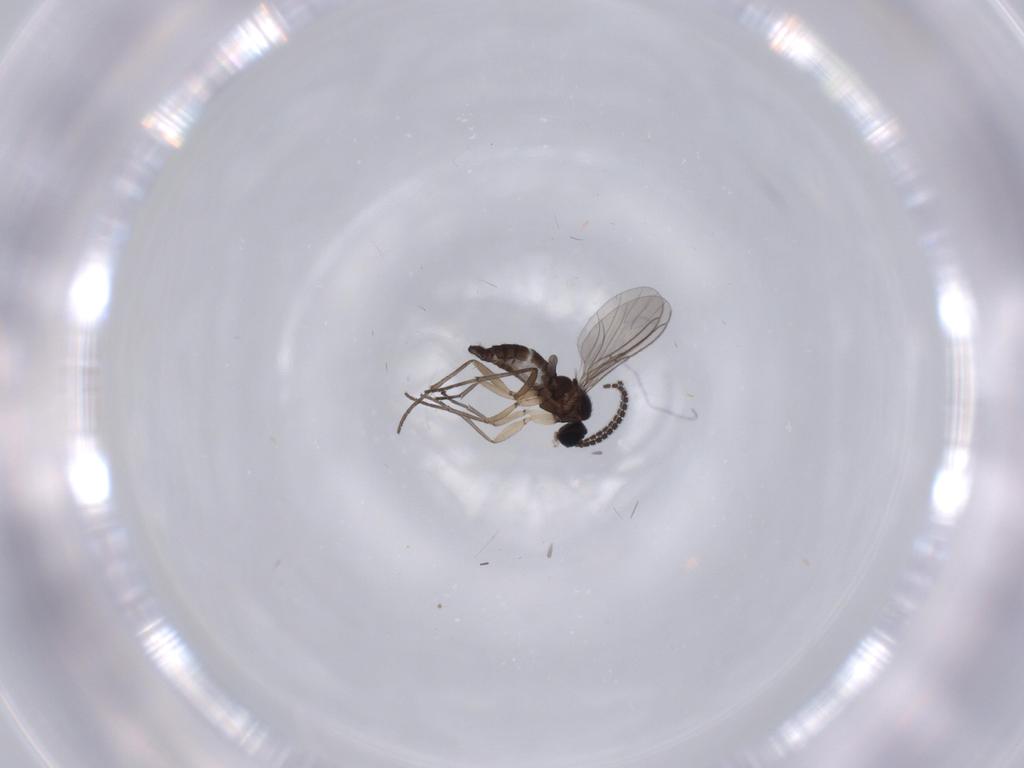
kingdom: Animalia
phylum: Arthropoda
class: Insecta
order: Diptera
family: Sciaridae
